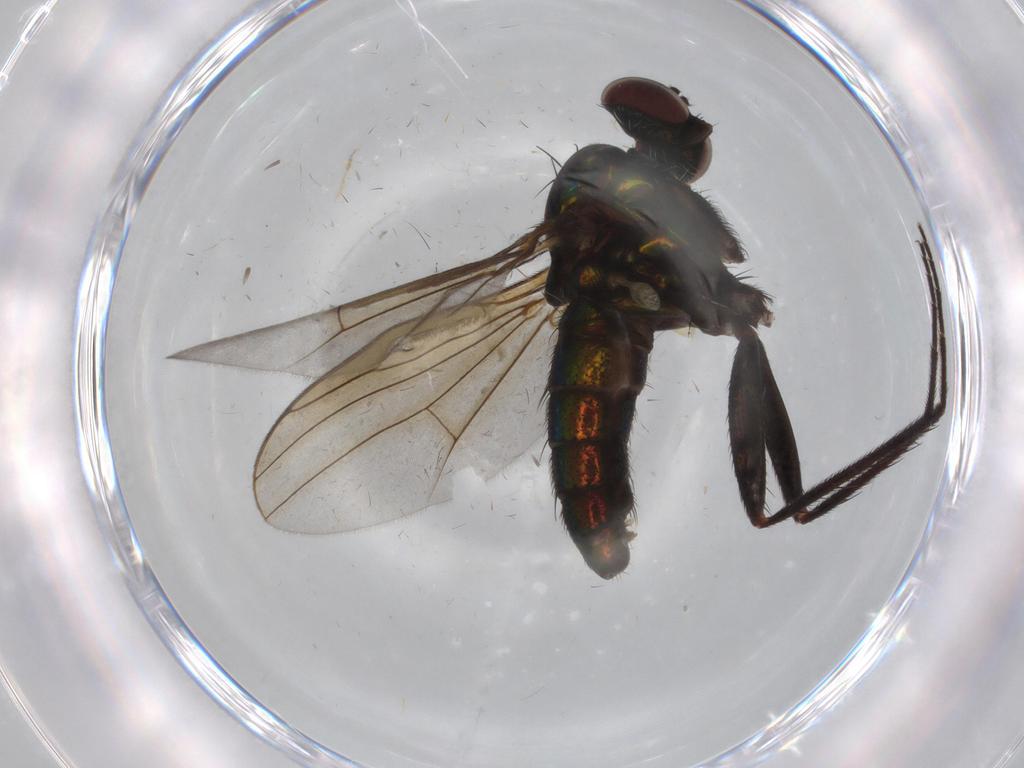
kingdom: Animalia
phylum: Arthropoda
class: Insecta
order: Diptera
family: Dolichopodidae
